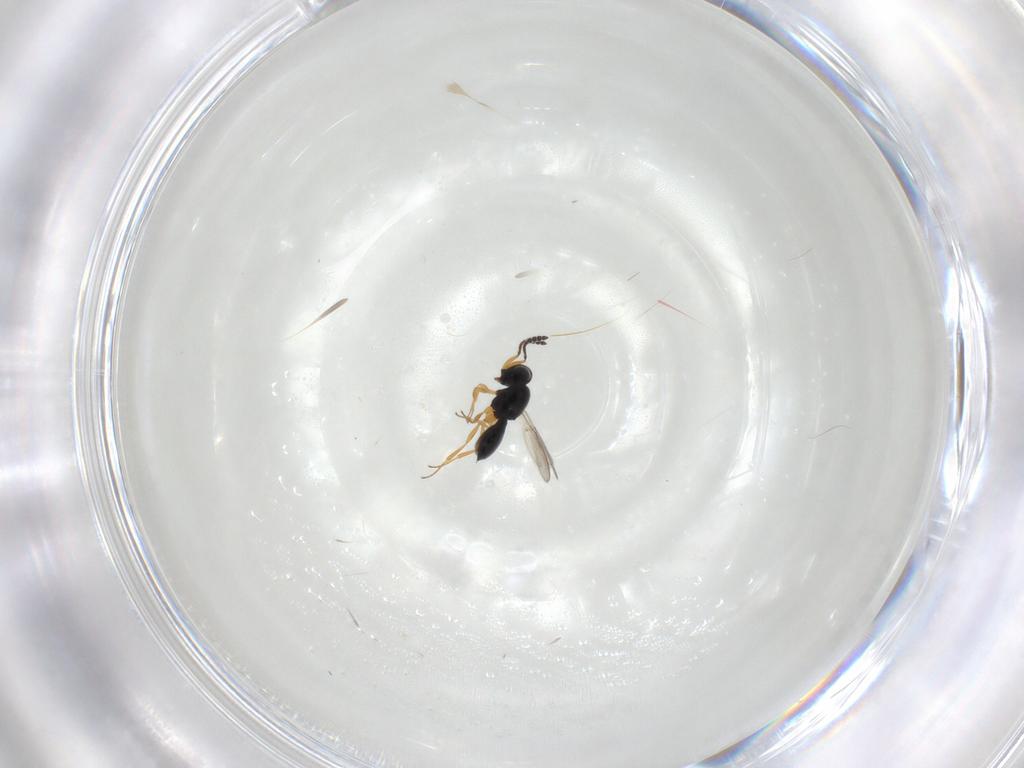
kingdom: Animalia
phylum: Arthropoda
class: Insecta
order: Hymenoptera
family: Scelionidae
